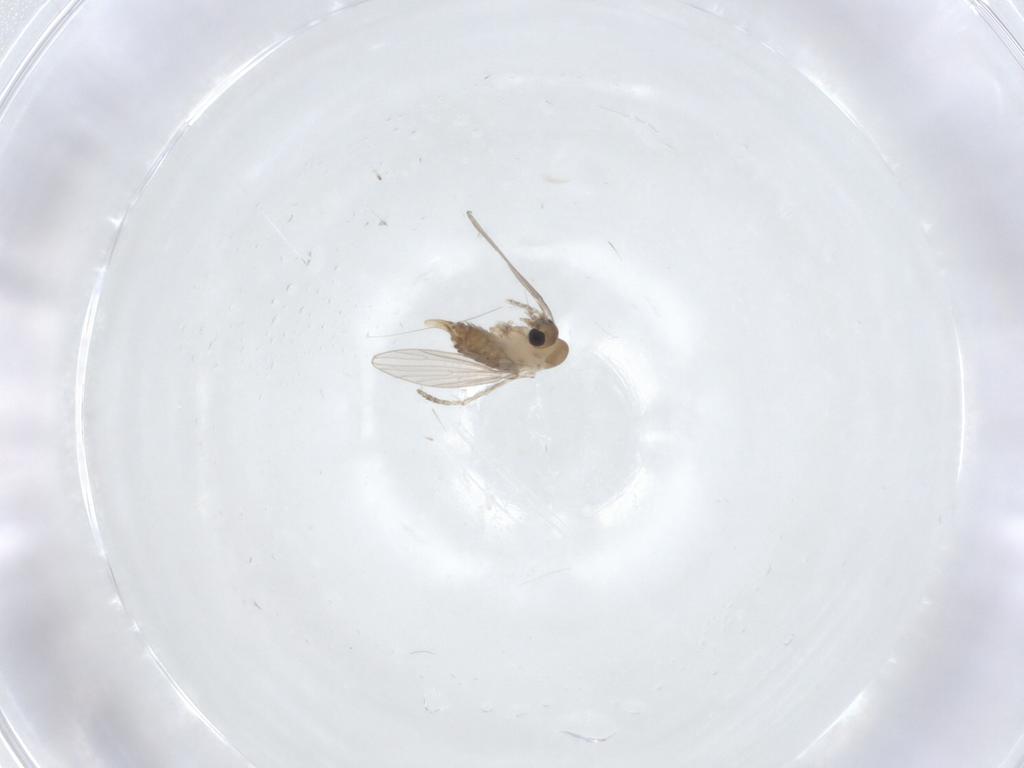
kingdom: Animalia
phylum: Arthropoda
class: Insecta
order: Diptera
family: Psychodidae
